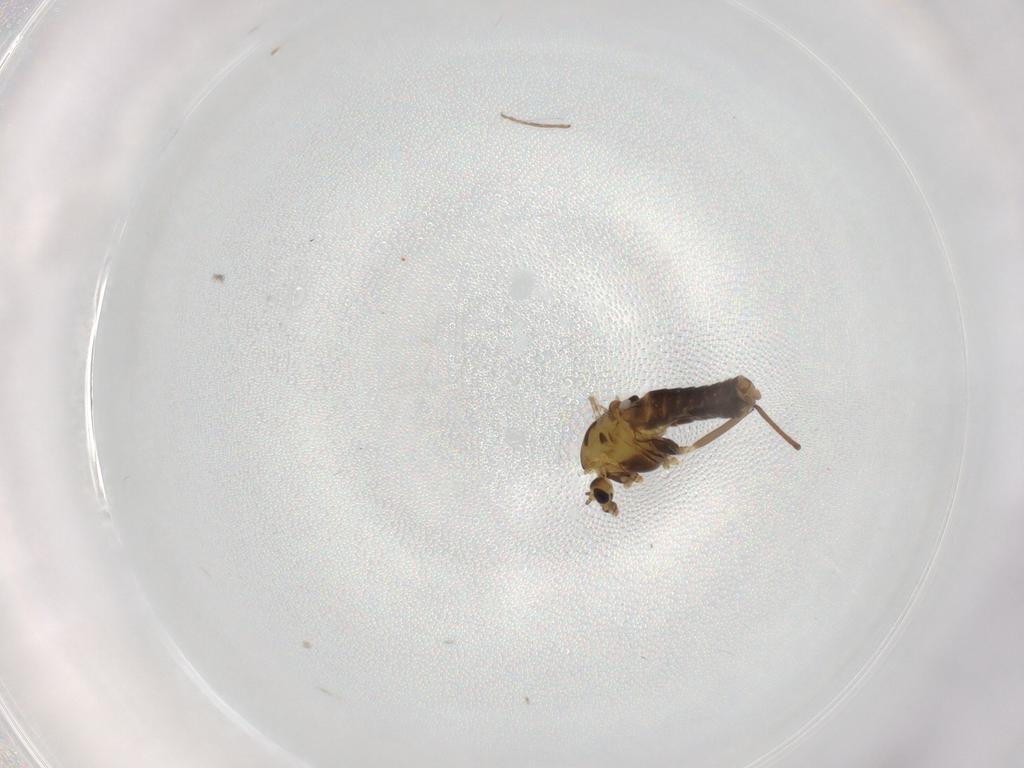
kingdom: Animalia
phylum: Arthropoda
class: Insecta
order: Diptera
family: Chironomidae
